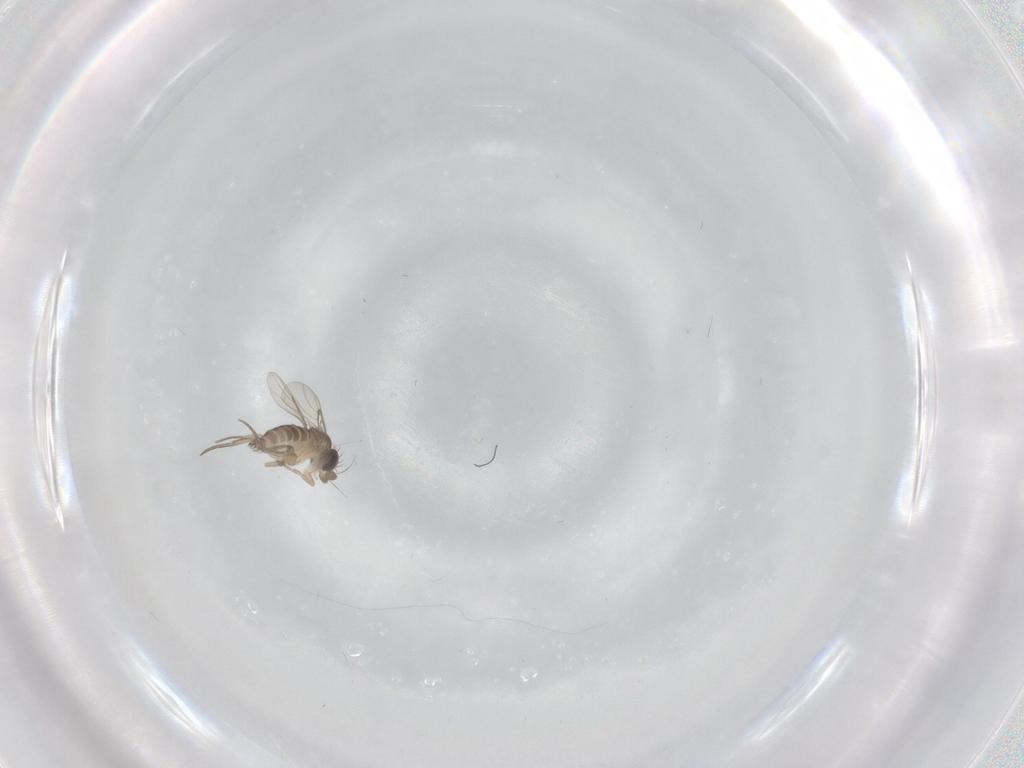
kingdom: Animalia
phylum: Arthropoda
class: Insecta
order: Diptera
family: Phoridae
